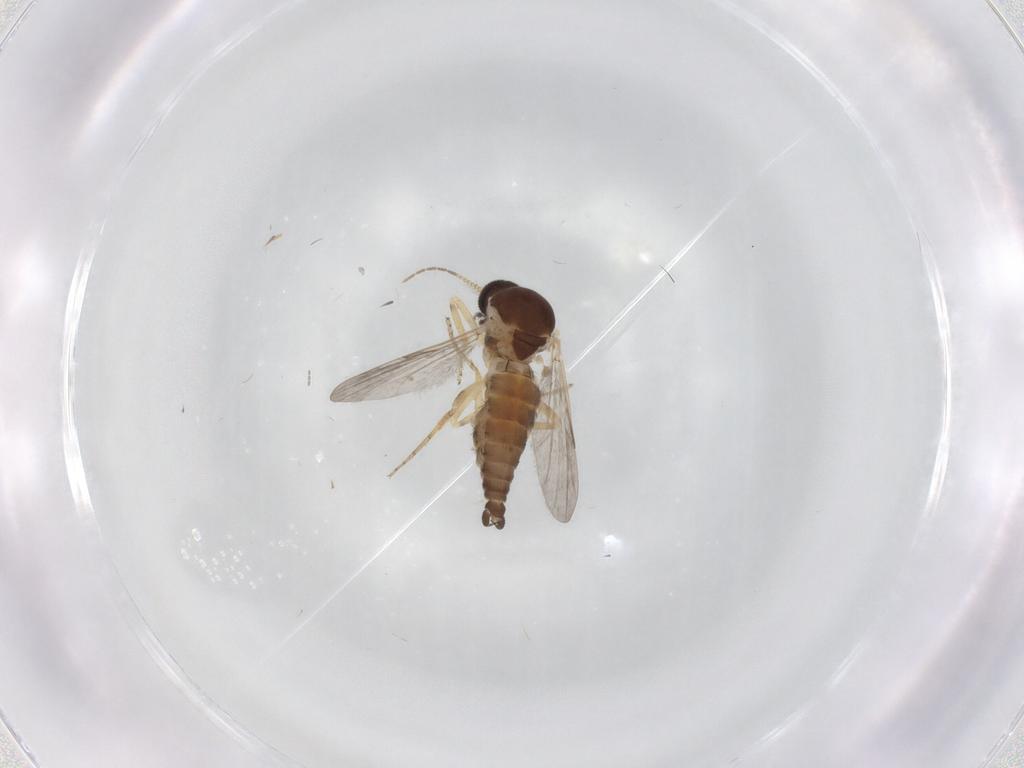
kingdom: Animalia
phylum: Arthropoda
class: Insecta
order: Diptera
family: Ceratopogonidae
